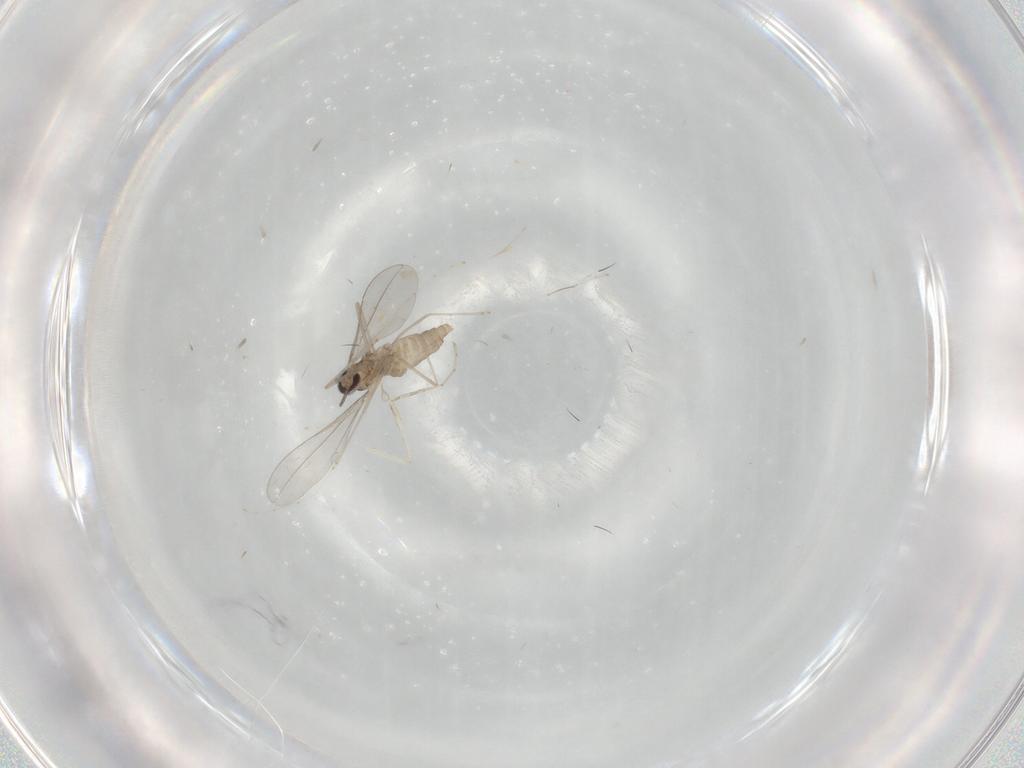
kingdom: Animalia
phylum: Arthropoda
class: Insecta
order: Diptera
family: Cecidomyiidae
